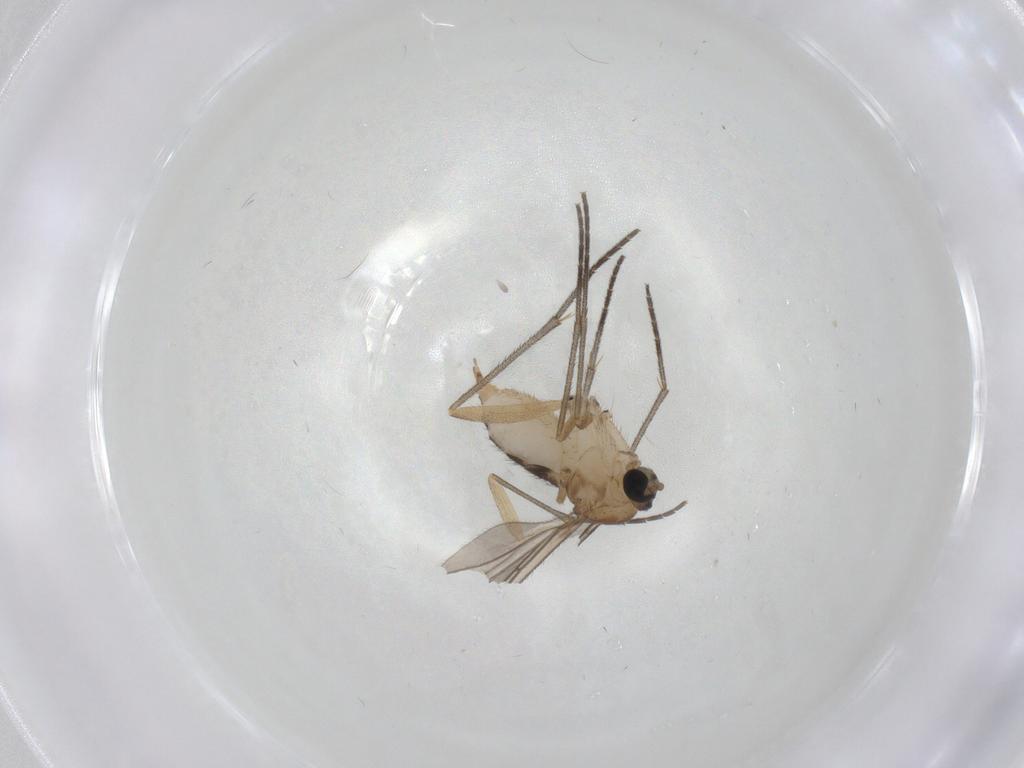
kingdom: Animalia
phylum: Arthropoda
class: Insecta
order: Diptera
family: Sciaridae
